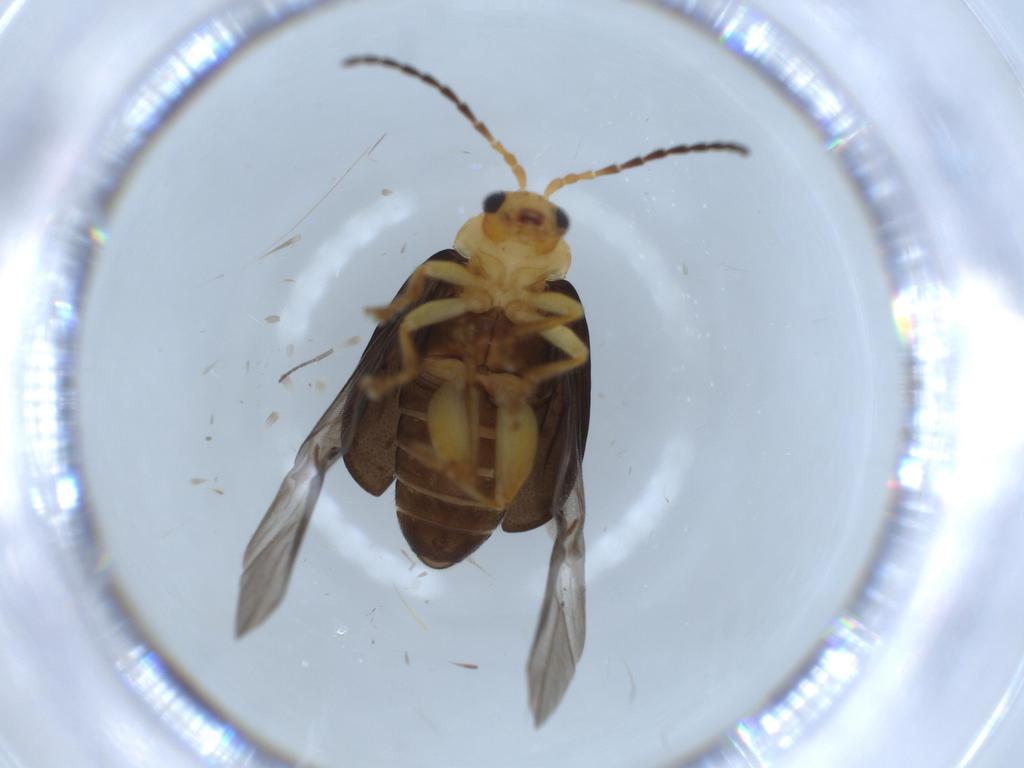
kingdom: Animalia
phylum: Arthropoda
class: Insecta
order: Coleoptera
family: Chrysomelidae
